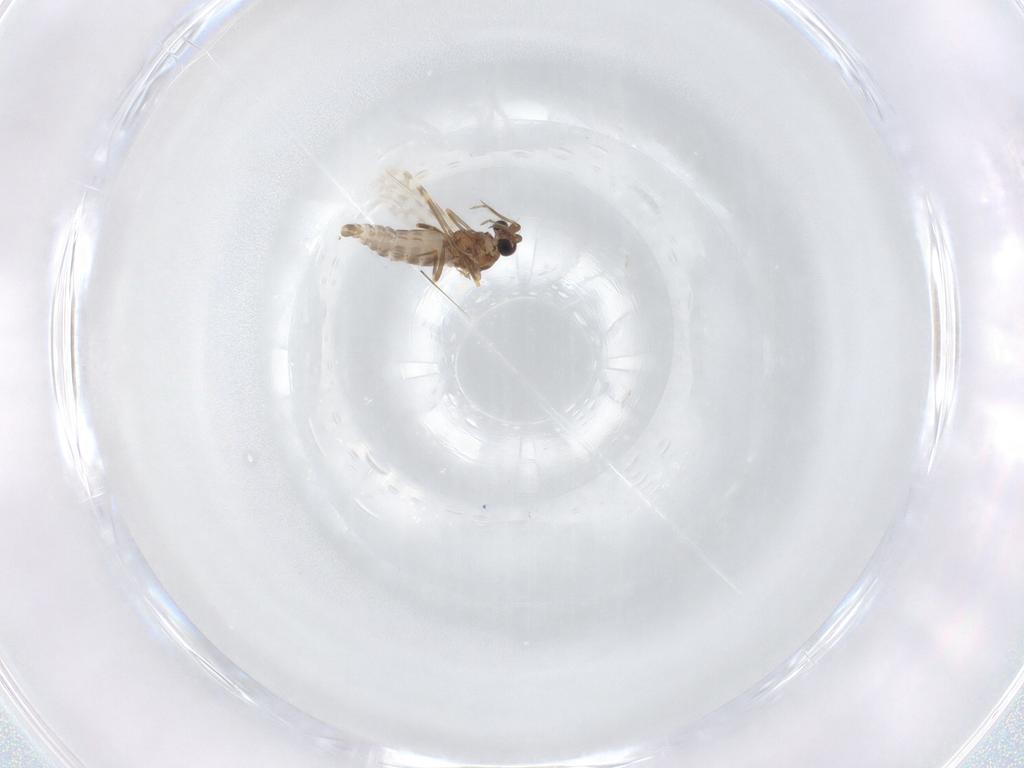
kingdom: Animalia
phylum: Arthropoda
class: Insecta
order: Diptera
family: Ceratopogonidae
